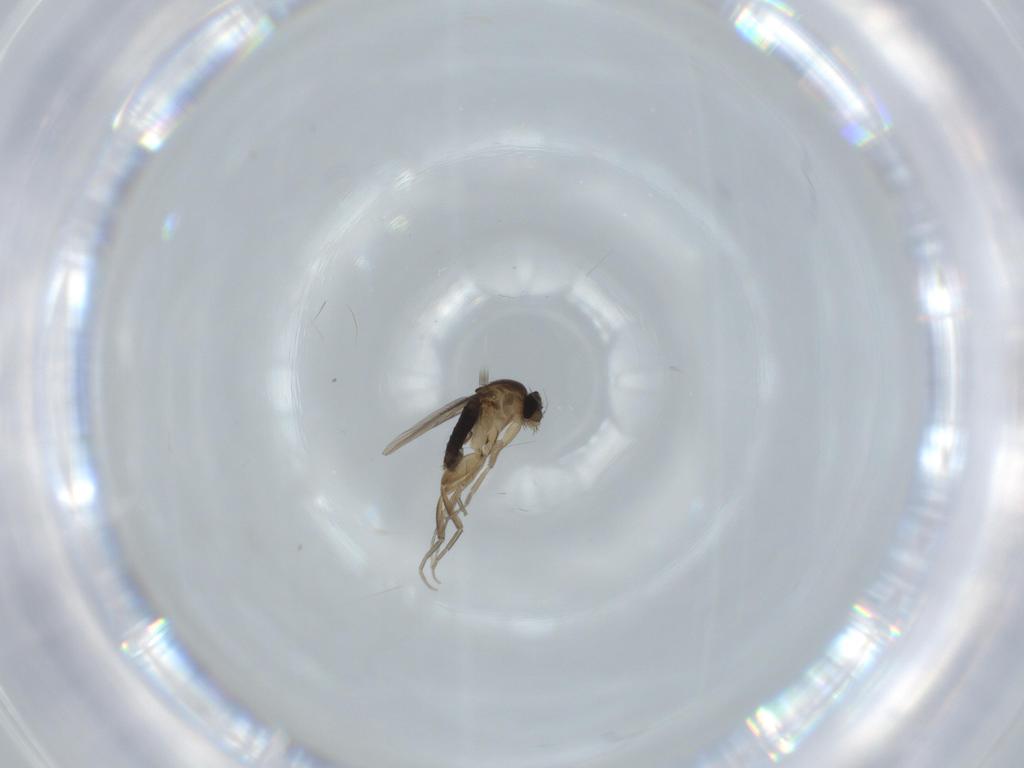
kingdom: Animalia
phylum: Arthropoda
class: Insecta
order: Diptera
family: Phoridae
